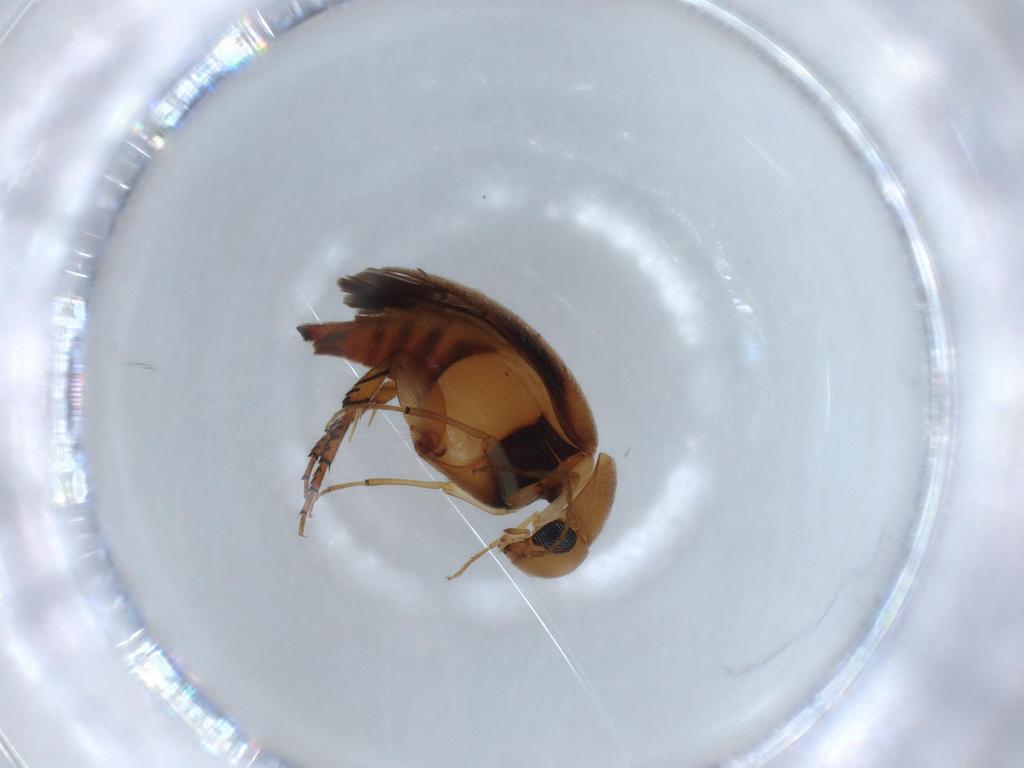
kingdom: Animalia
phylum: Arthropoda
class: Insecta
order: Coleoptera
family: Mordellidae
